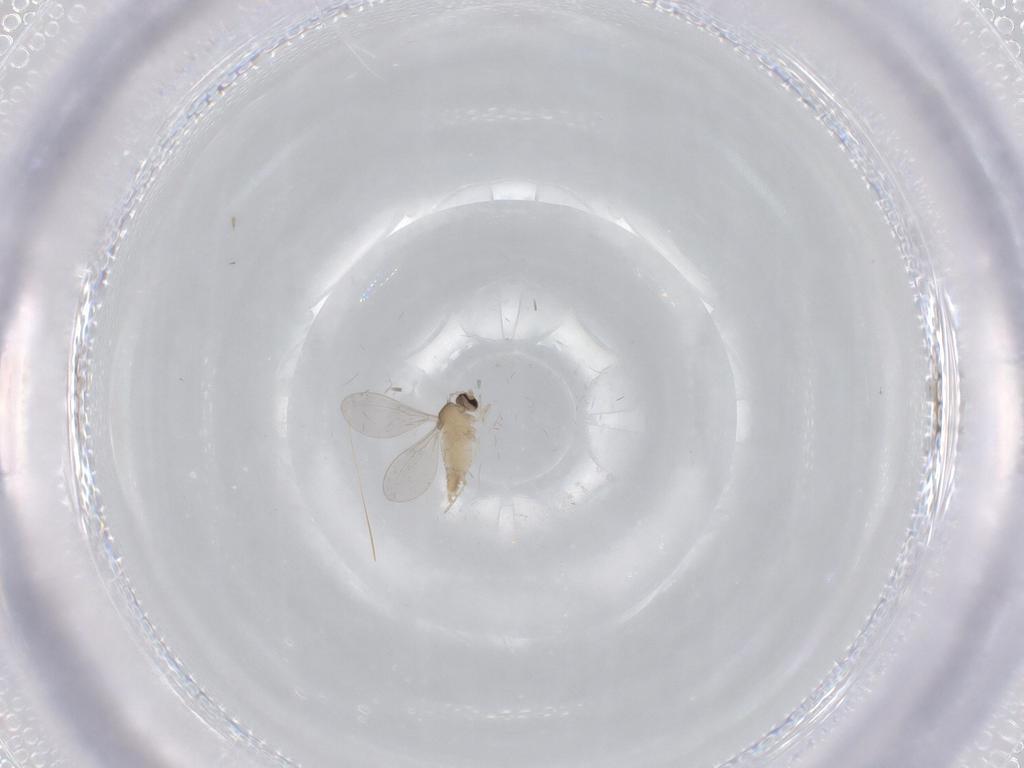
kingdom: Animalia
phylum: Arthropoda
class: Insecta
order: Diptera
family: Cecidomyiidae
